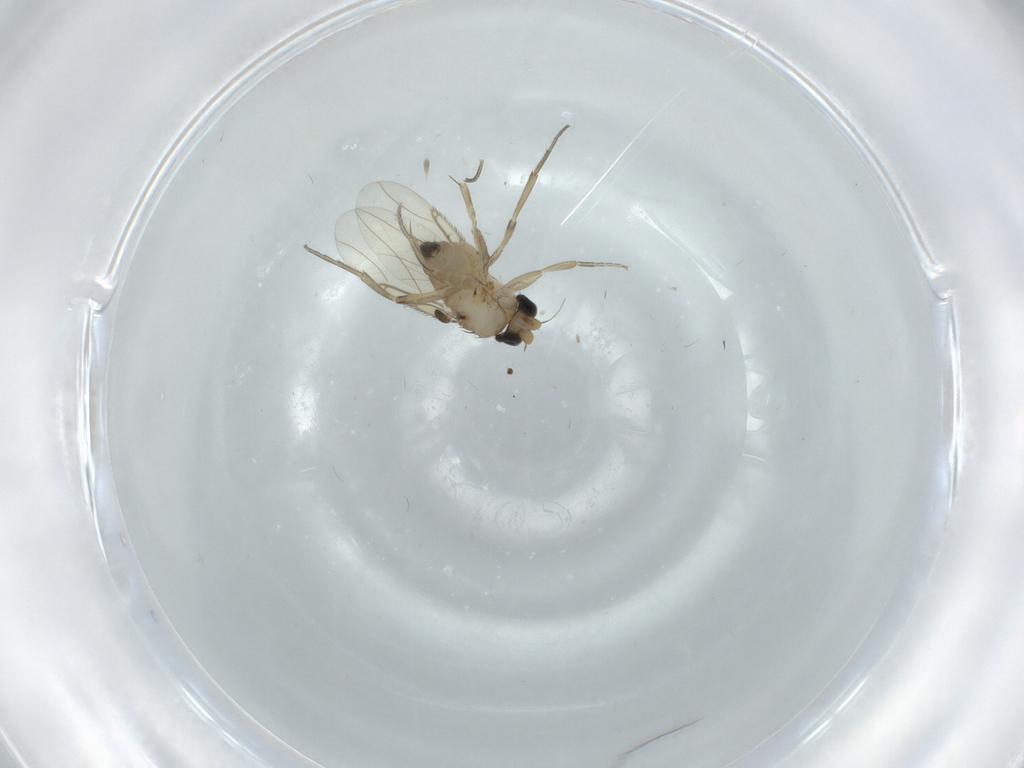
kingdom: Animalia
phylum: Arthropoda
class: Insecta
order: Diptera
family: Phoridae
